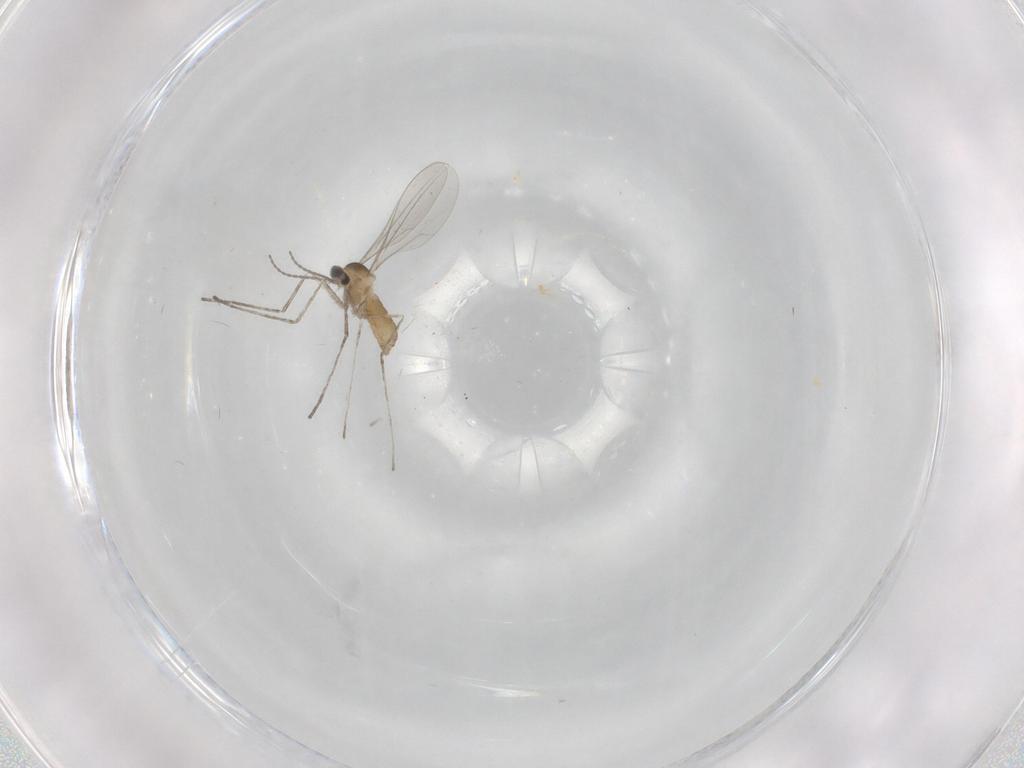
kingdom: Animalia
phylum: Arthropoda
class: Insecta
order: Diptera
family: Cecidomyiidae
